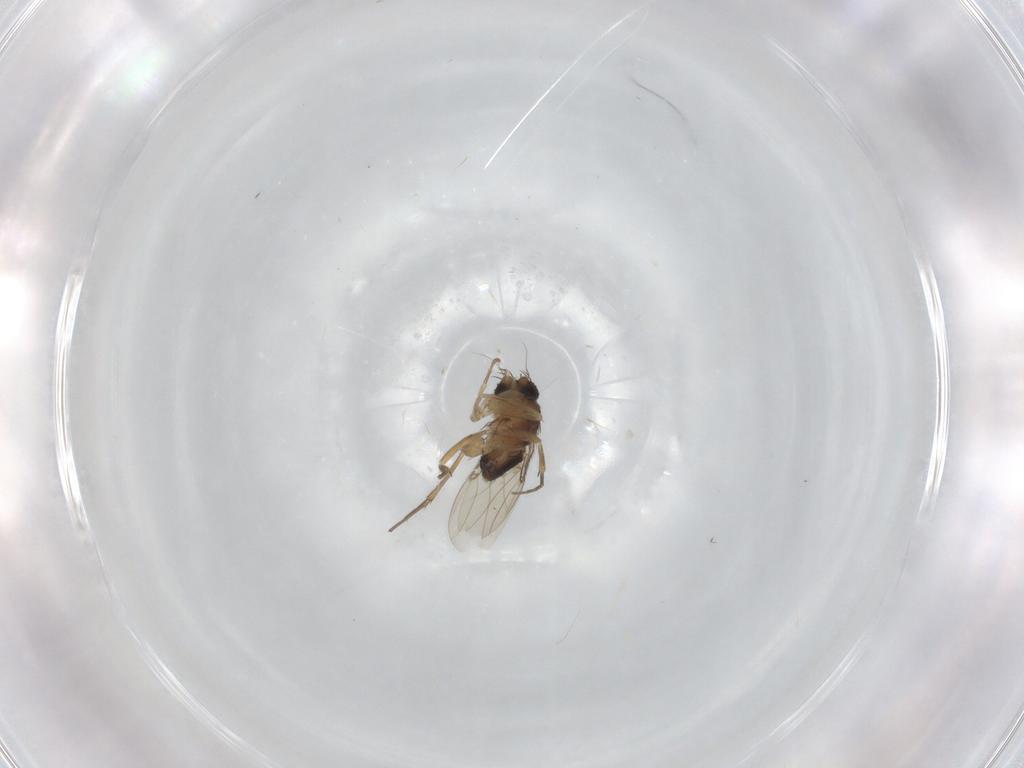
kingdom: Animalia
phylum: Arthropoda
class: Insecta
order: Diptera
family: Phoridae
